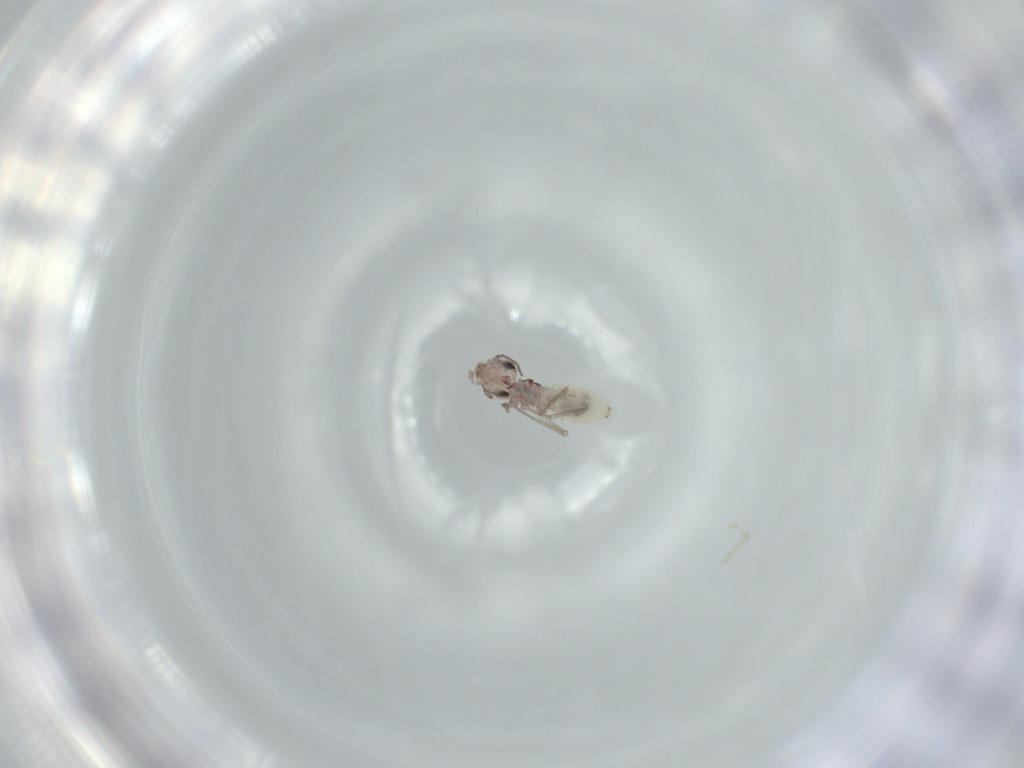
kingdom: Animalia
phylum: Arthropoda
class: Insecta
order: Psocodea
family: Lepidopsocidae
